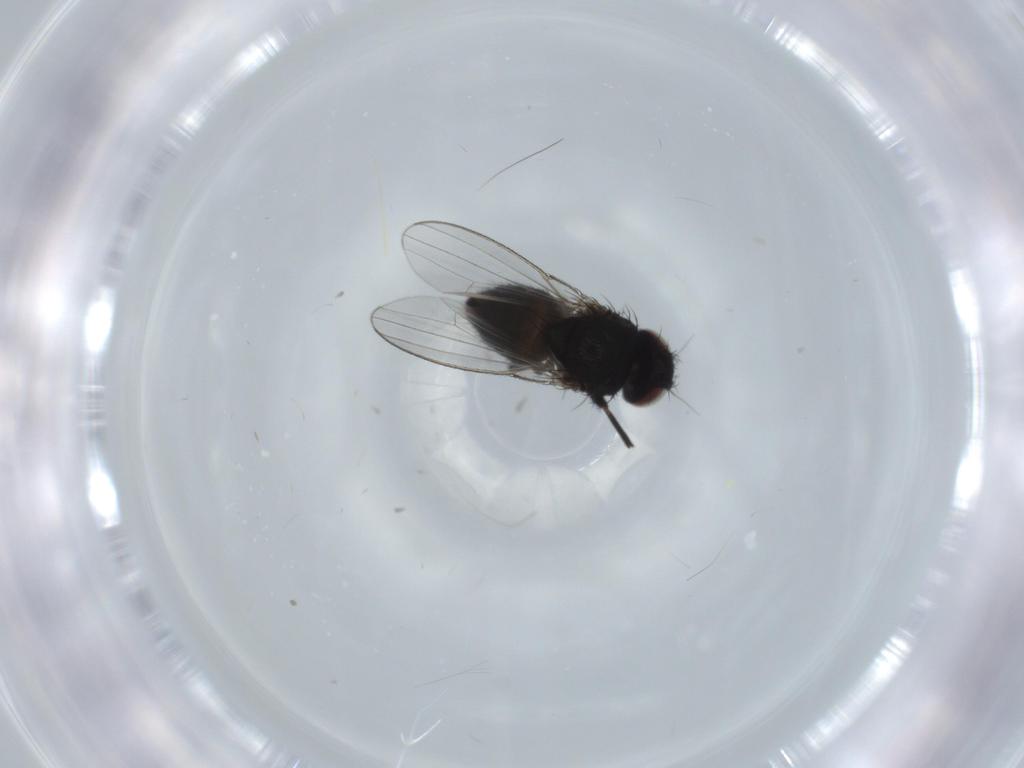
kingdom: Animalia
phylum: Arthropoda
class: Insecta
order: Diptera
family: Milichiidae
